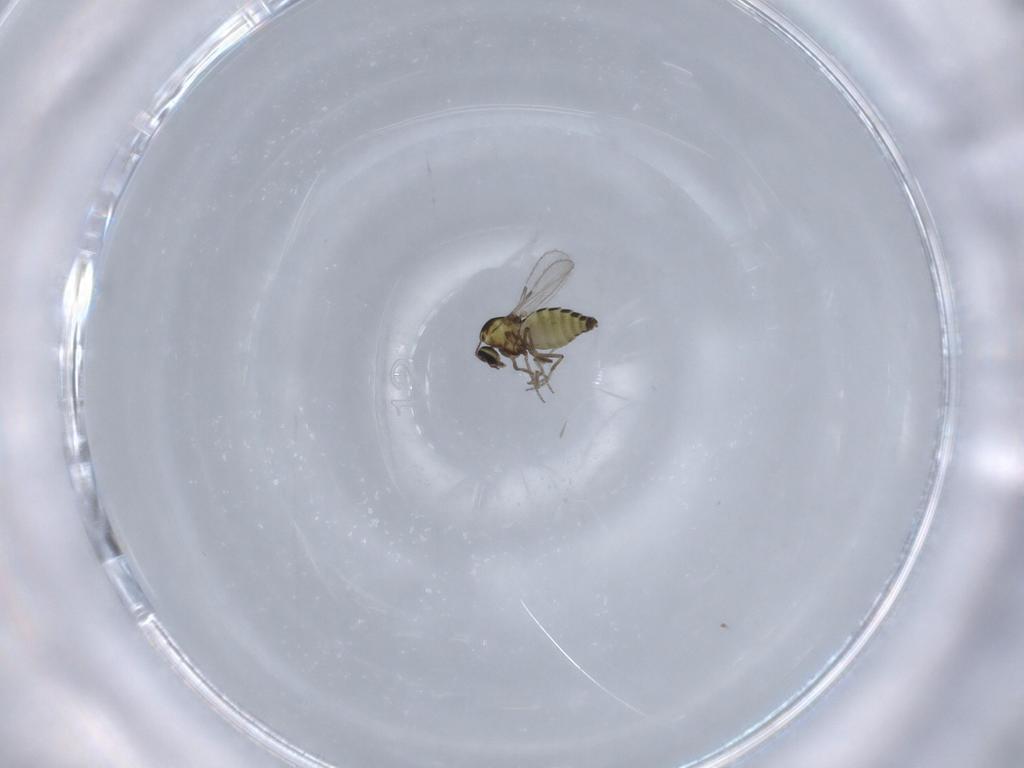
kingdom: Animalia
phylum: Arthropoda
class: Insecta
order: Diptera
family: Ceratopogonidae
